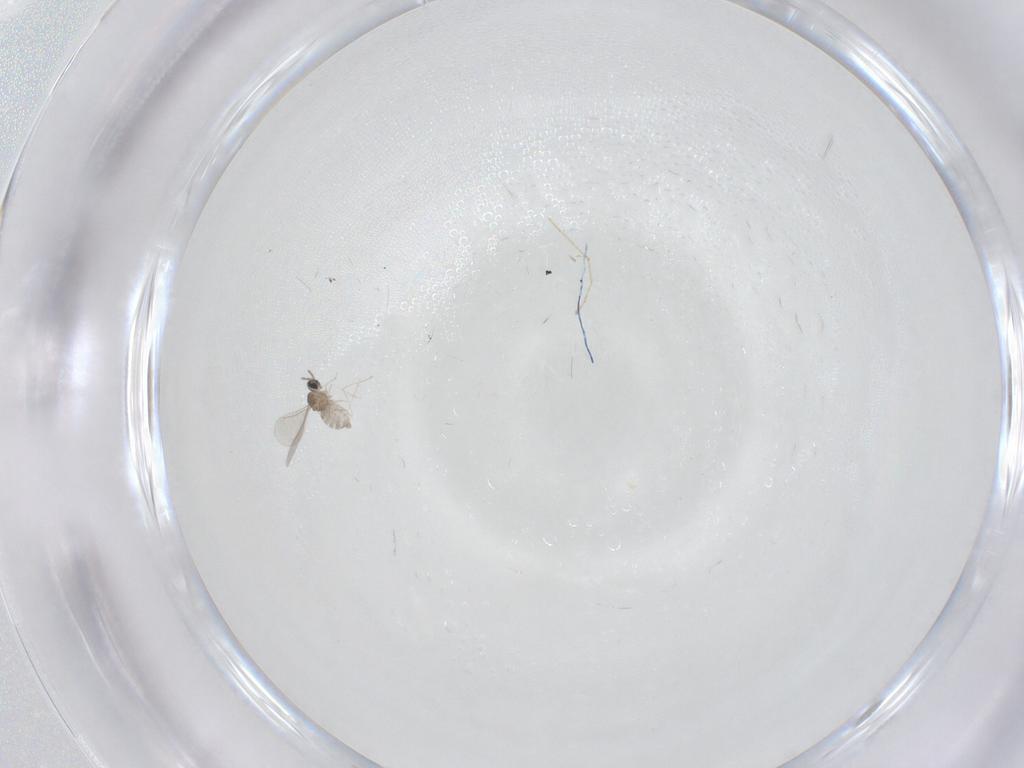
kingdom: Animalia
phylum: Arthropoda
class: Insecta
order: Diptera
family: Cecidomyiidae
